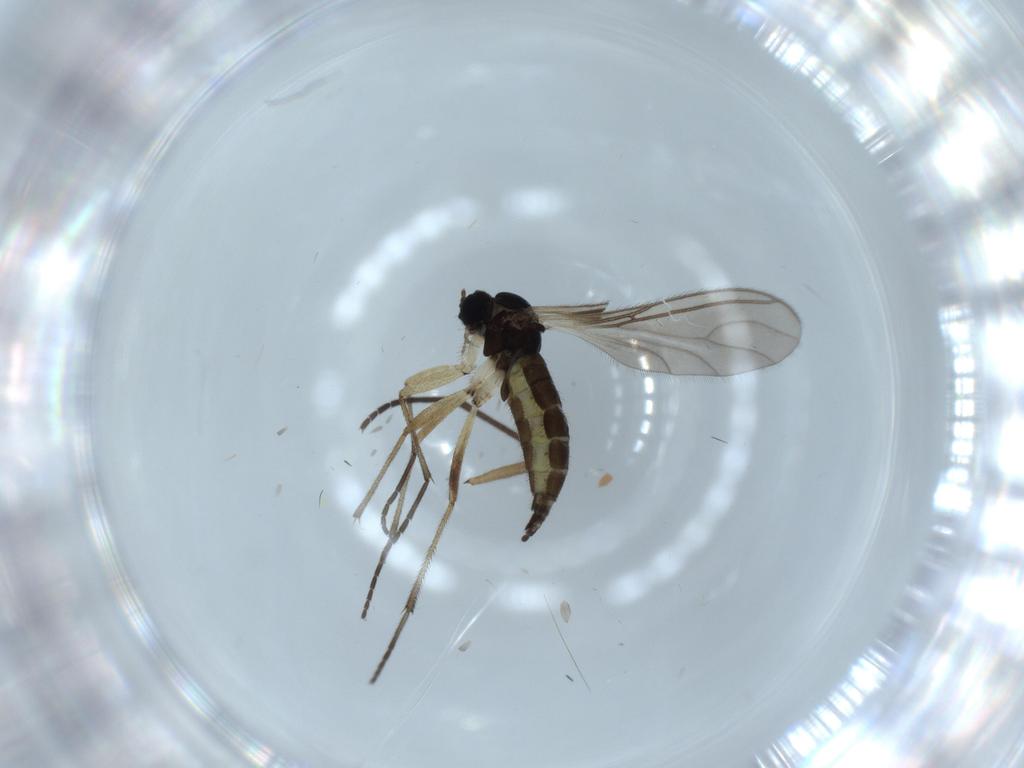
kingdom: Animalia
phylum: Arthropoda
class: Insecta
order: Diptera
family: Sciaridae
